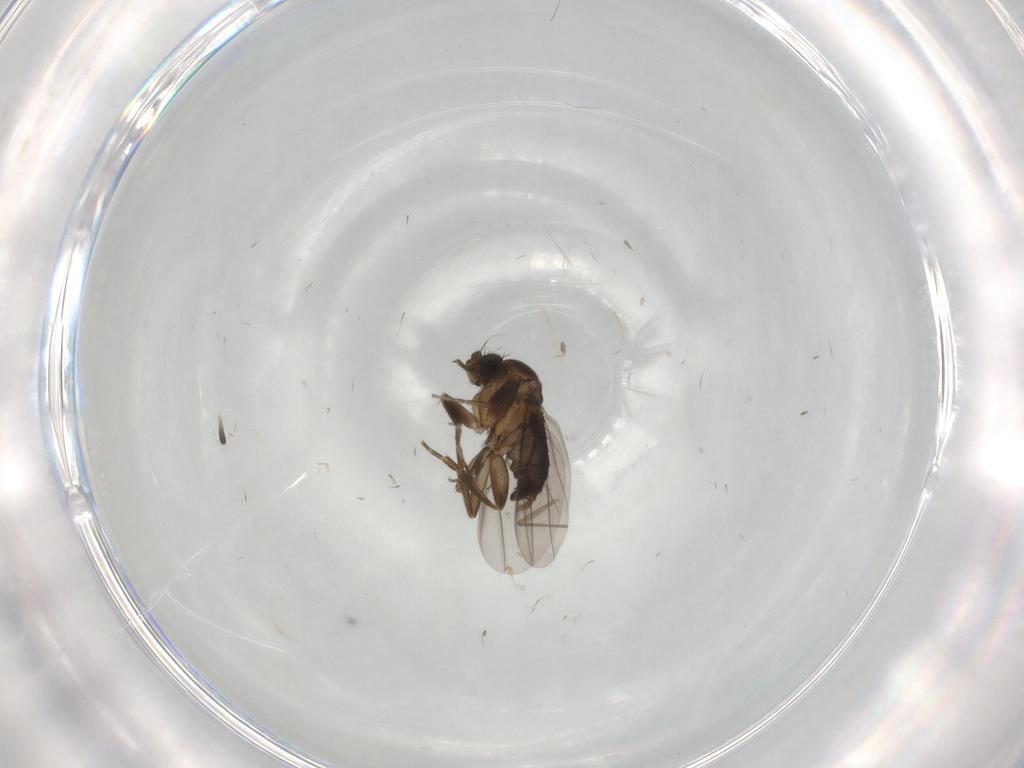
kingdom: Animalia
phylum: Arthropoda
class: Insecta
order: Diptera
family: Chironomidae
